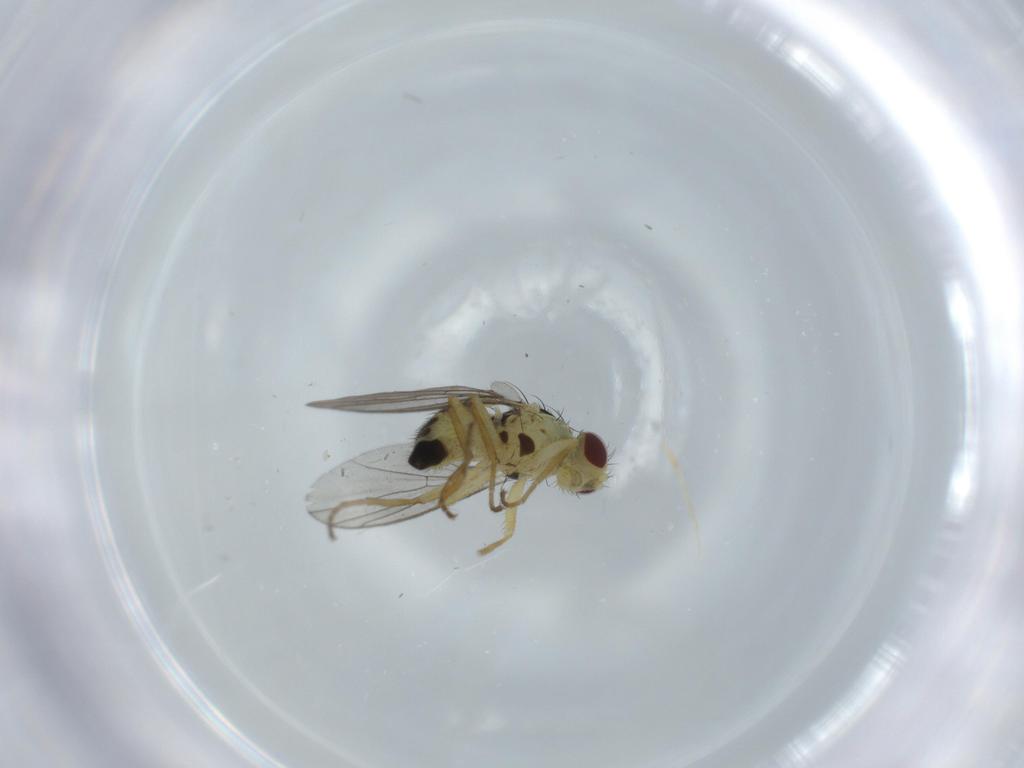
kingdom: Animalia
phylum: Arthropoda
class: Insecta
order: Diptera
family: Agromyzidae
